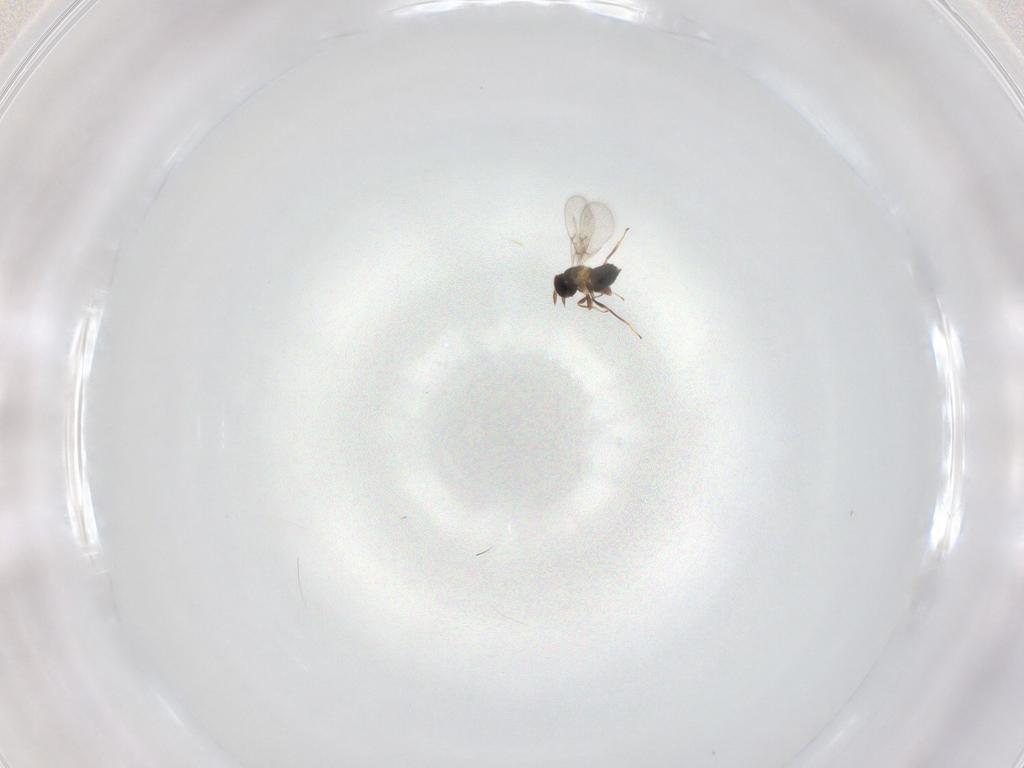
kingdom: Animalia
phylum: Arthropoda
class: Insecta
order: Hymenoptera
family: Trichogrammatidae
